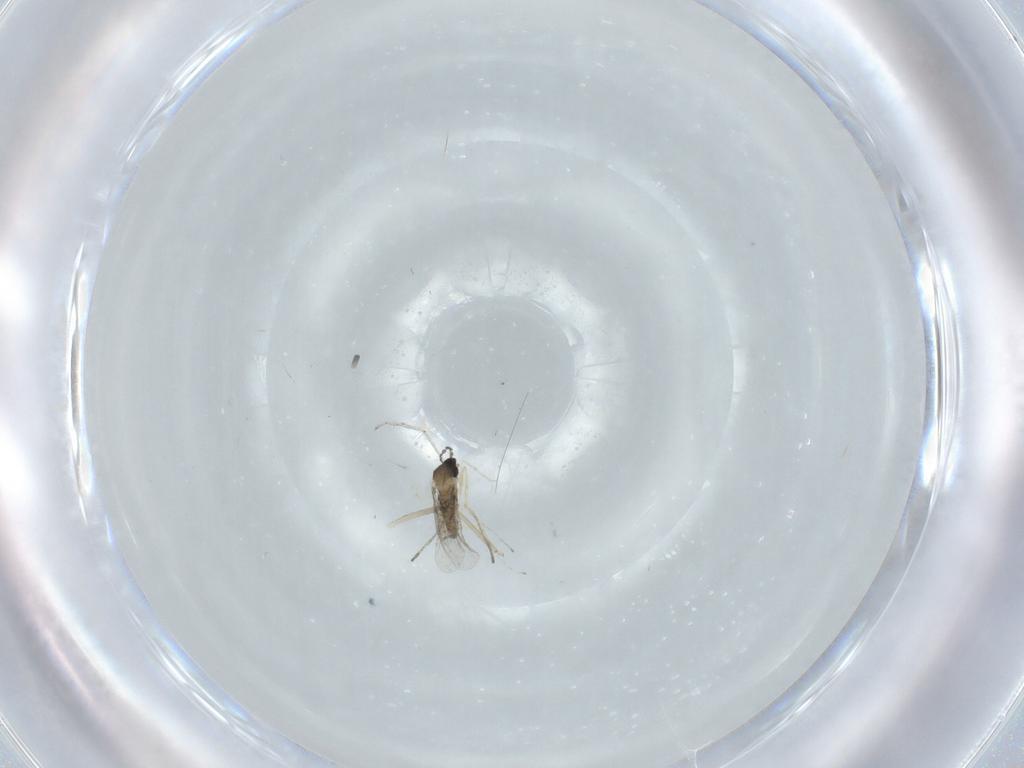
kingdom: Animalia
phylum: Arthropoda
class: Insecta
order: Diptera
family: Cecidomyiidae
